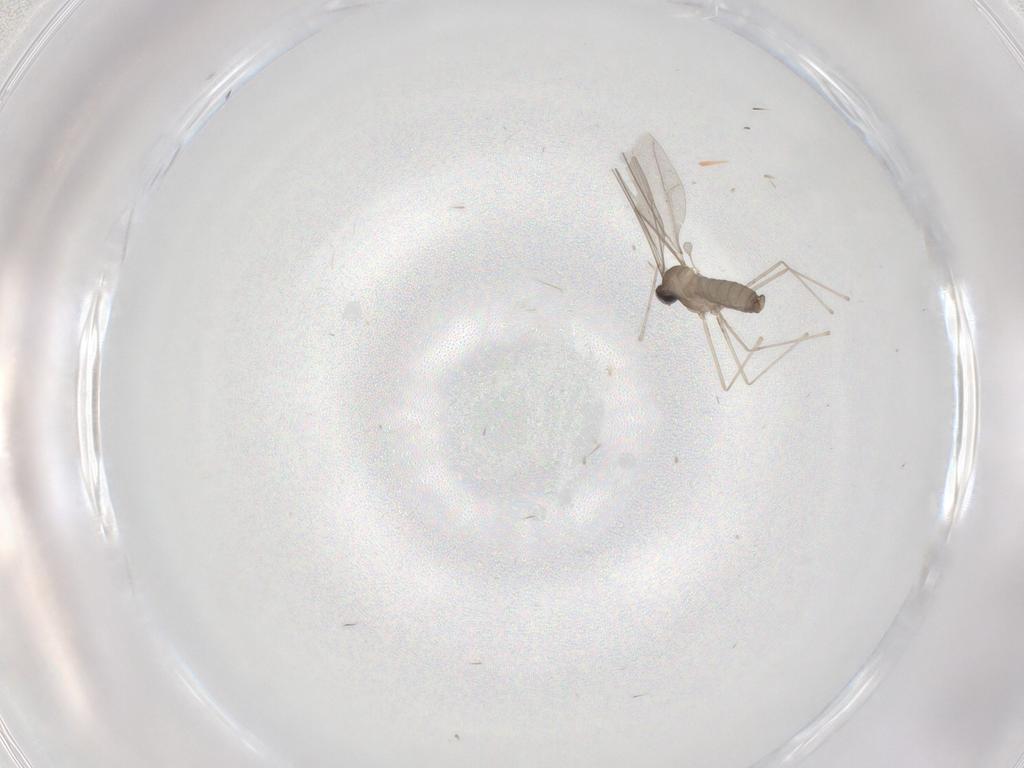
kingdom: Animalia
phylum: Arthropoda
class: Insecta
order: Diptera
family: Cecidomyiidae
